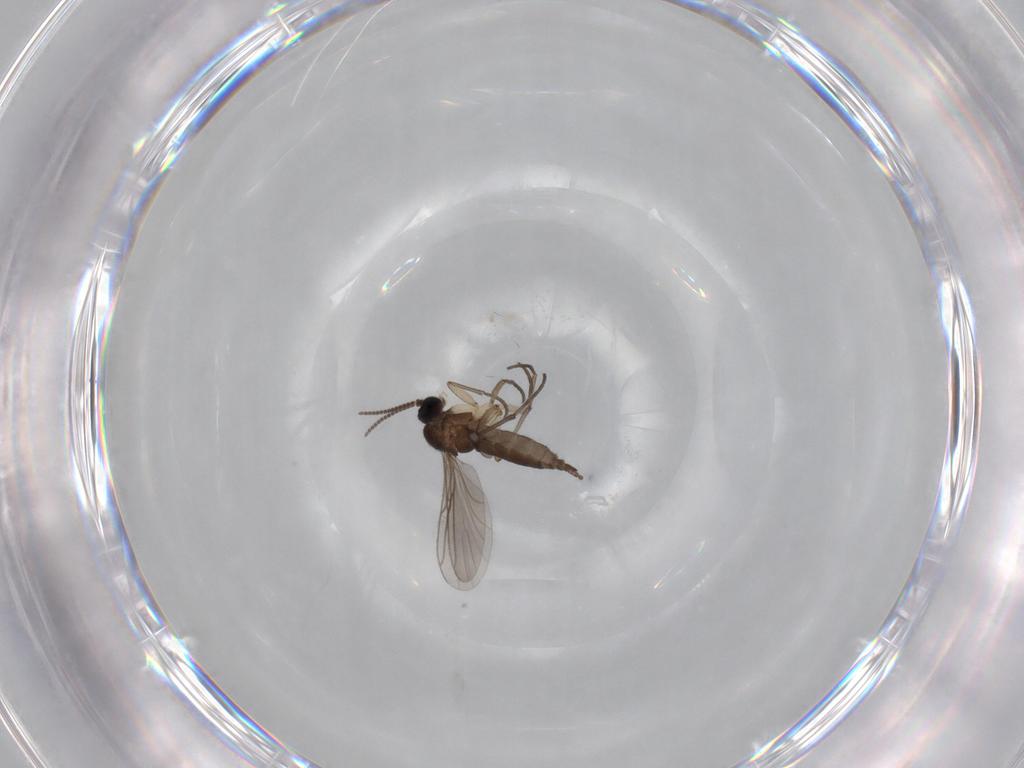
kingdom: Animalia
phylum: Arthropoda
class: Insecta
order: Diptera
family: Sciaridae
